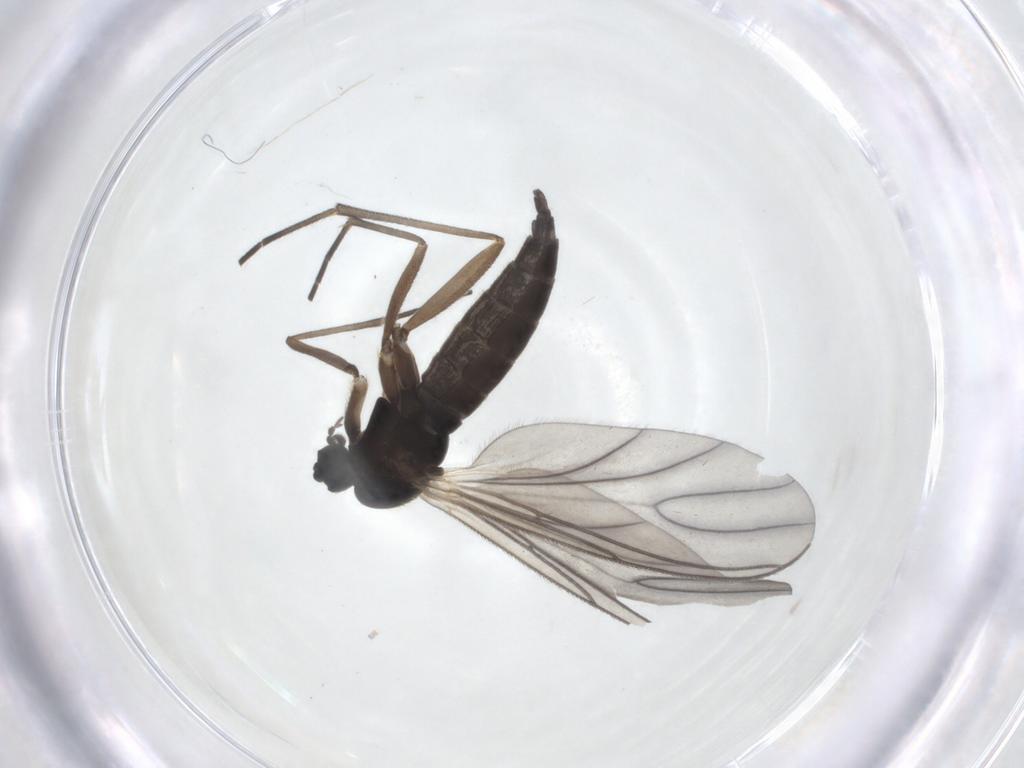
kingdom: Animalia
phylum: Arthropoda
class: Insecta
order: Diptera
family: Sciaridae
